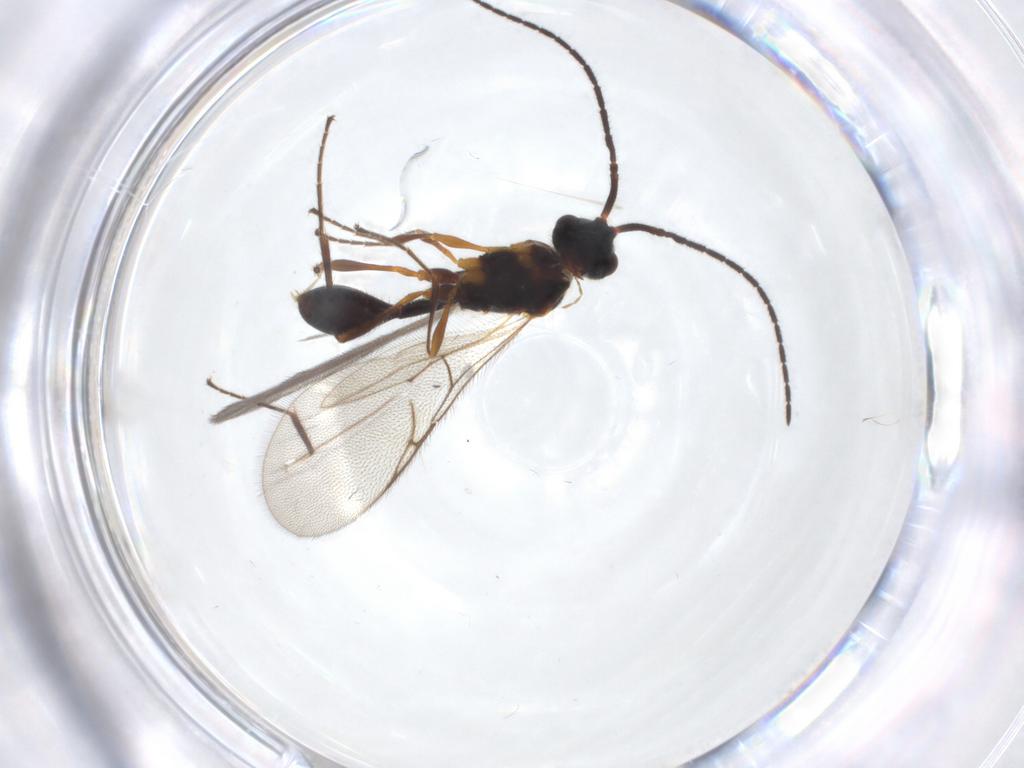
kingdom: Animalia
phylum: Arthropoda
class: Insecta
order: Hymenoptera
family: Diapriidae
